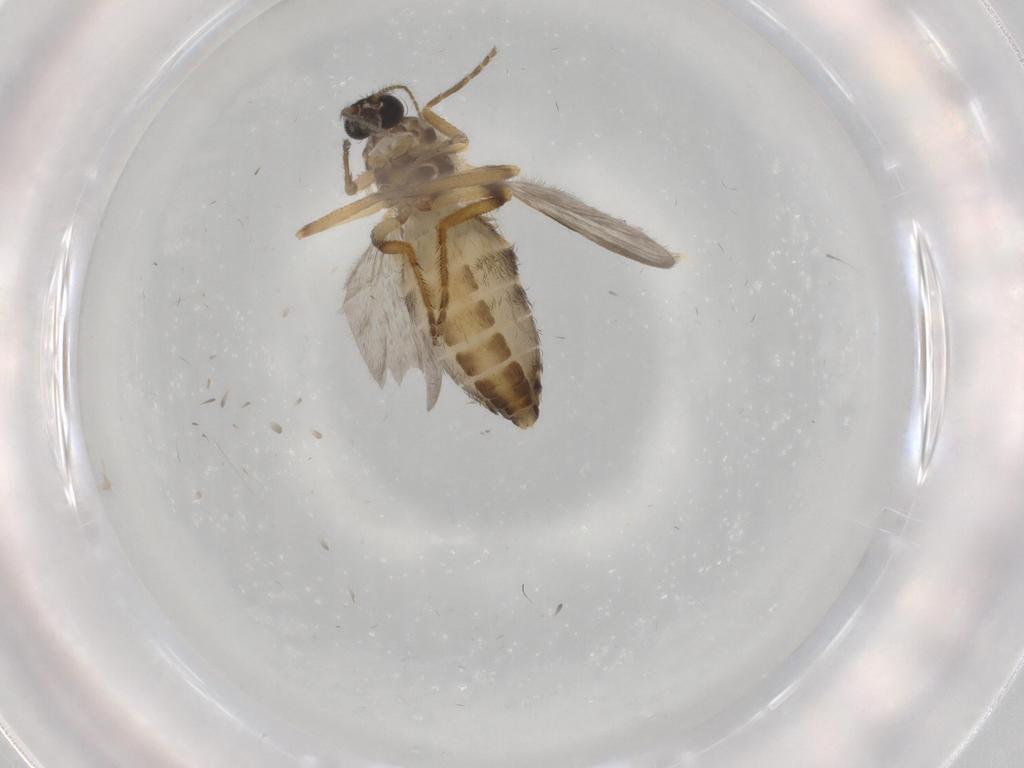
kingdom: Animalia
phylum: Arthropoda
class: Insecta
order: Diptera
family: Ceratopogonidae
